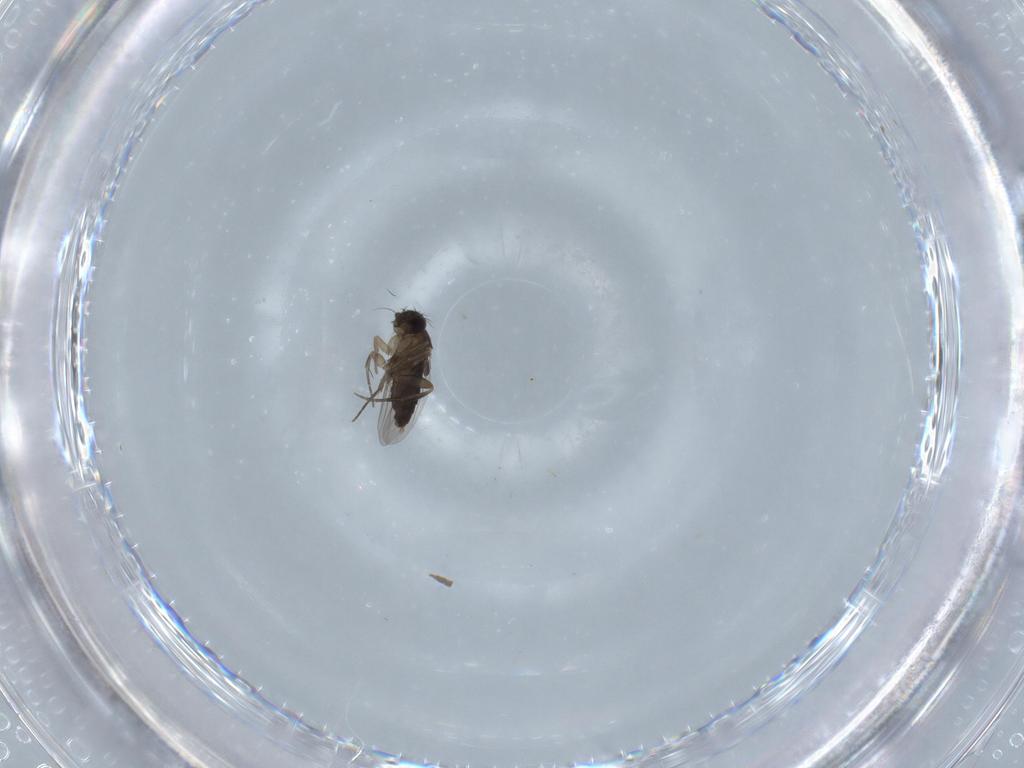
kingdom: Animalia
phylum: Arthropoda
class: Insecta
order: Diptera
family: Cecidomyiidae
